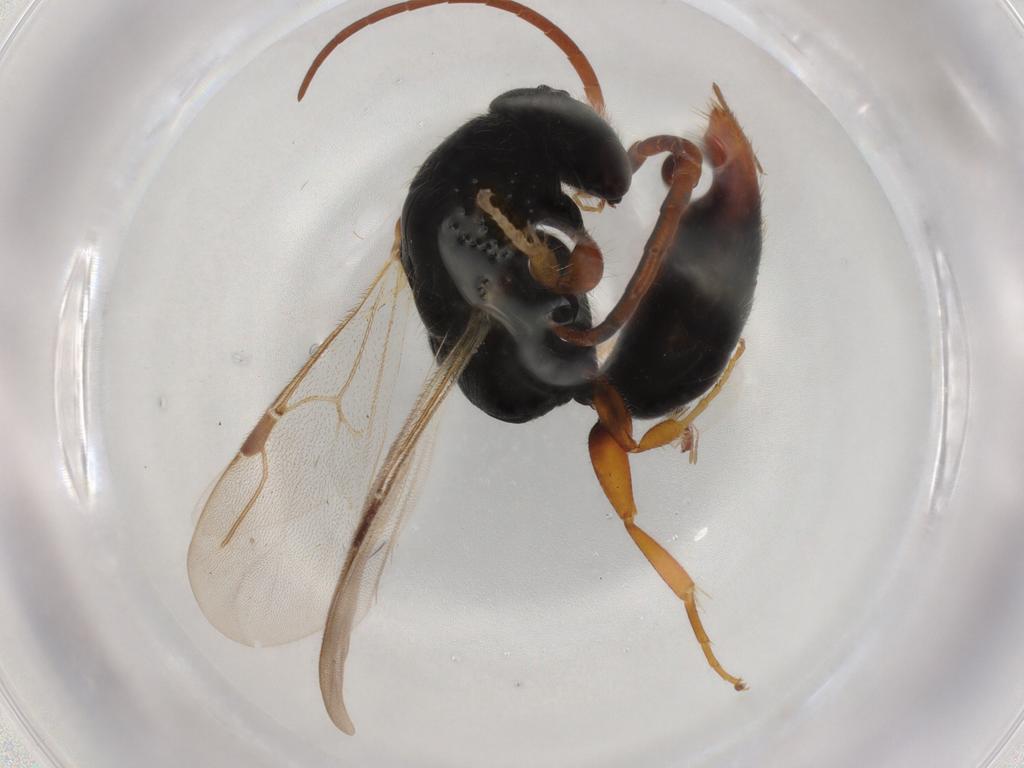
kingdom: Animalia
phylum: Arthropoda
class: Insecta
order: Hymenoptera
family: Bethylidae
